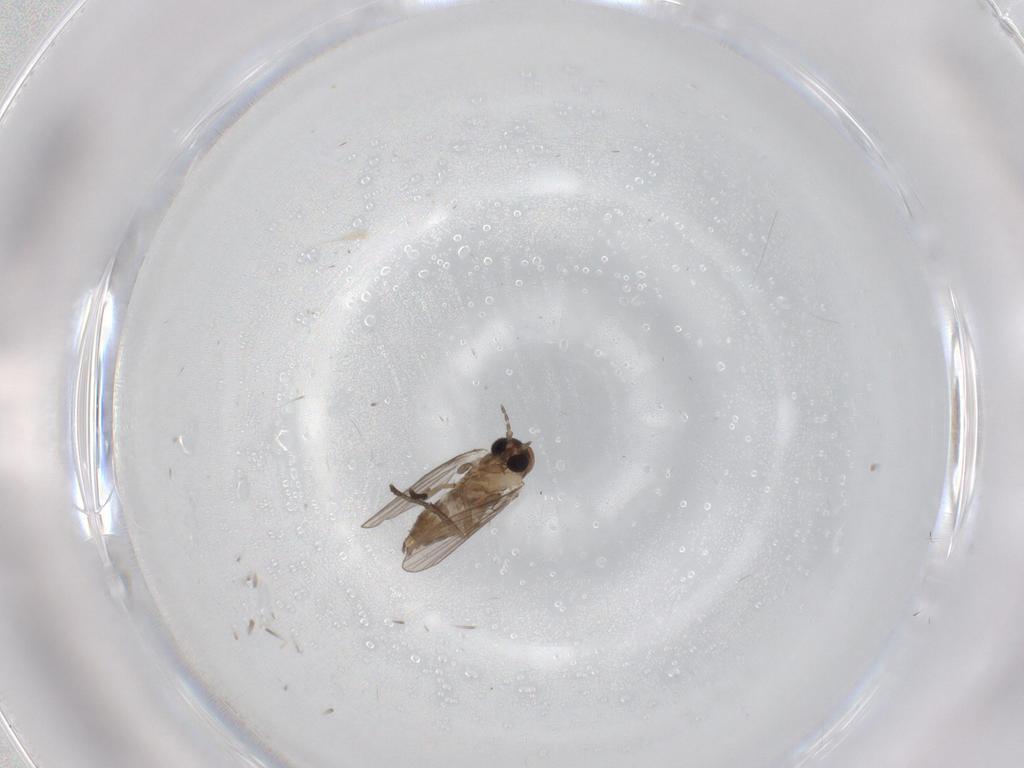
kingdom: Animalia
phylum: Arthropoda
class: Insecta
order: Diptera
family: Psychodidae
